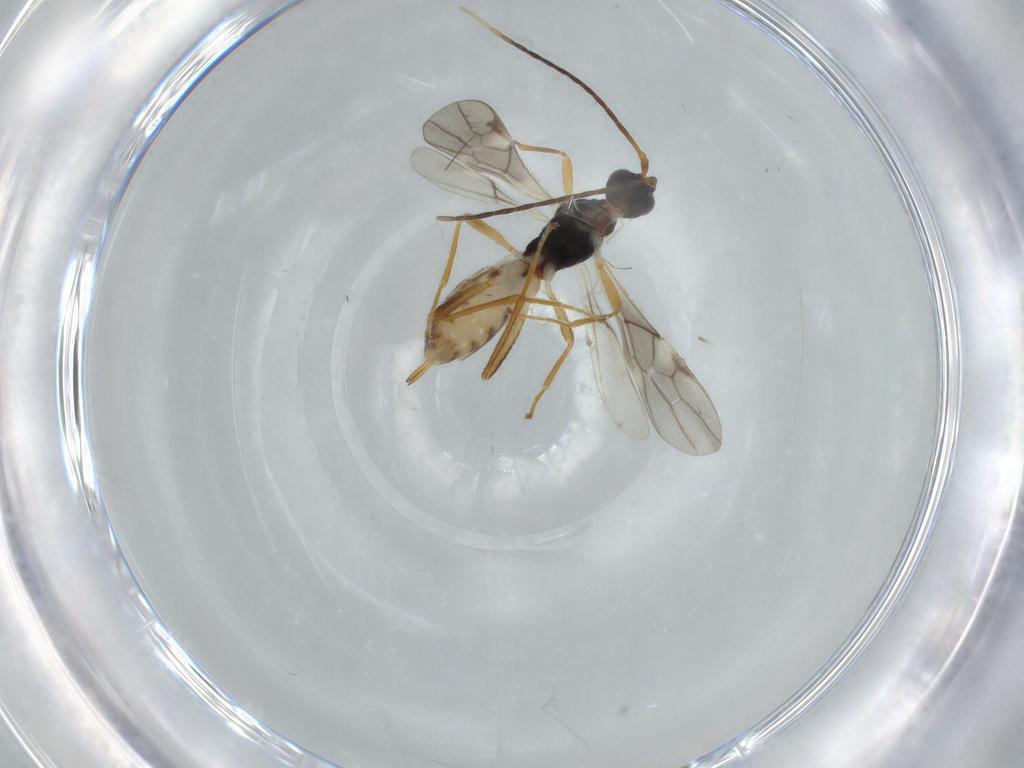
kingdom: Animalia
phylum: Arthropoda
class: Insecta
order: Hymenoptera
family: Braconidae
